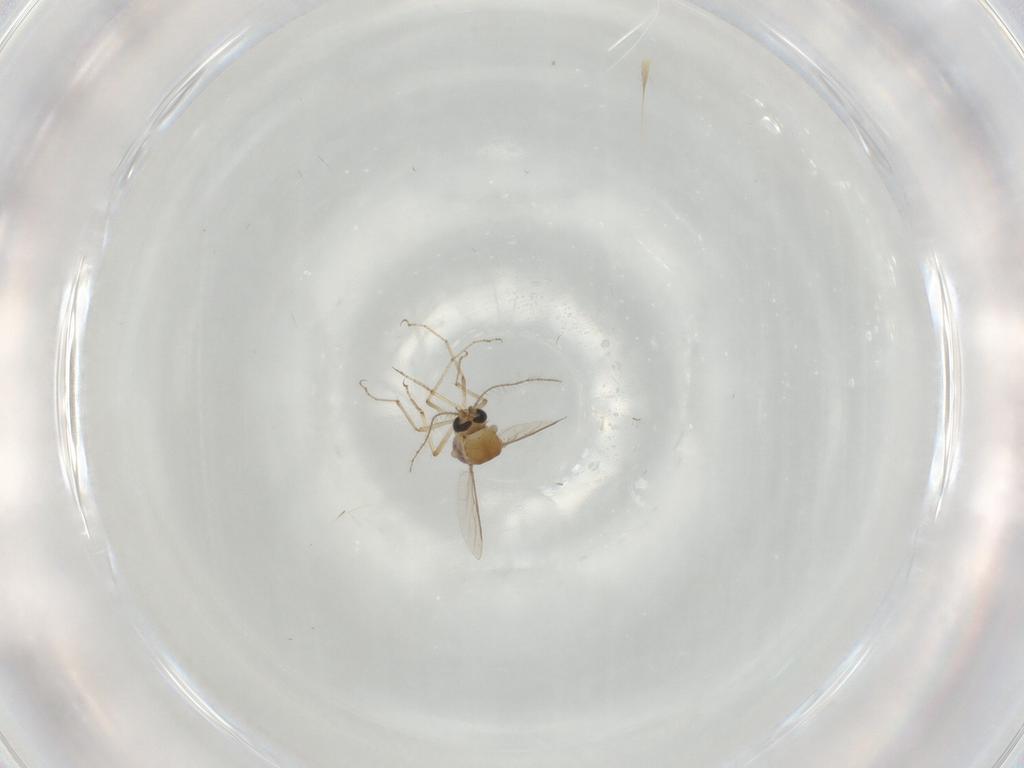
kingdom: Animalia
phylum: Arthropoda
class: Insecta
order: Diptera
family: Ceratopogonidae
